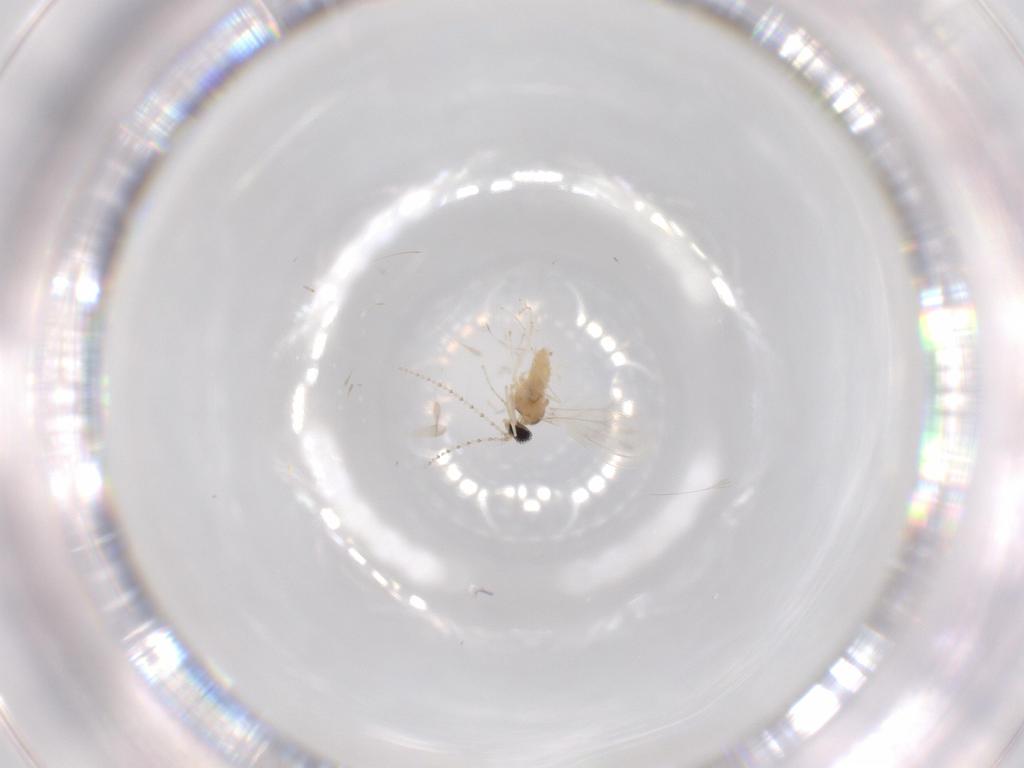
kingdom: Animalia
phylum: Arthropoda
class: Insecta
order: Diptera
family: Cecidomyiidae
